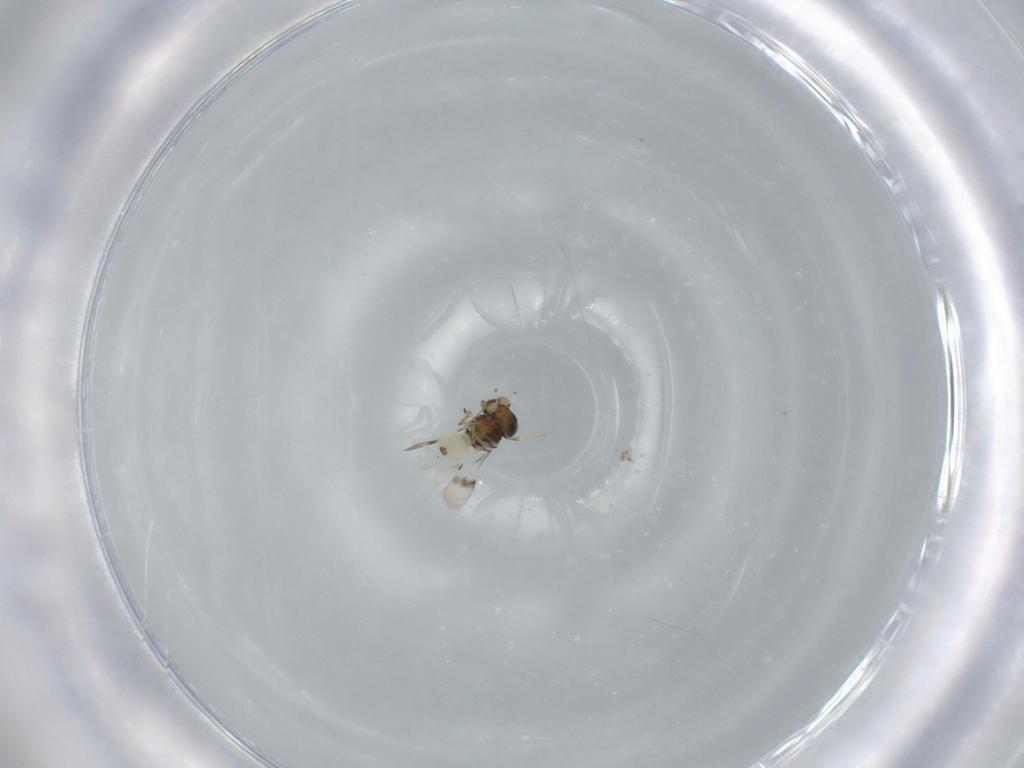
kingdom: Animalia
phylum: Arthropoda
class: Insecta
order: Hymenoptera
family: Scelionidae
